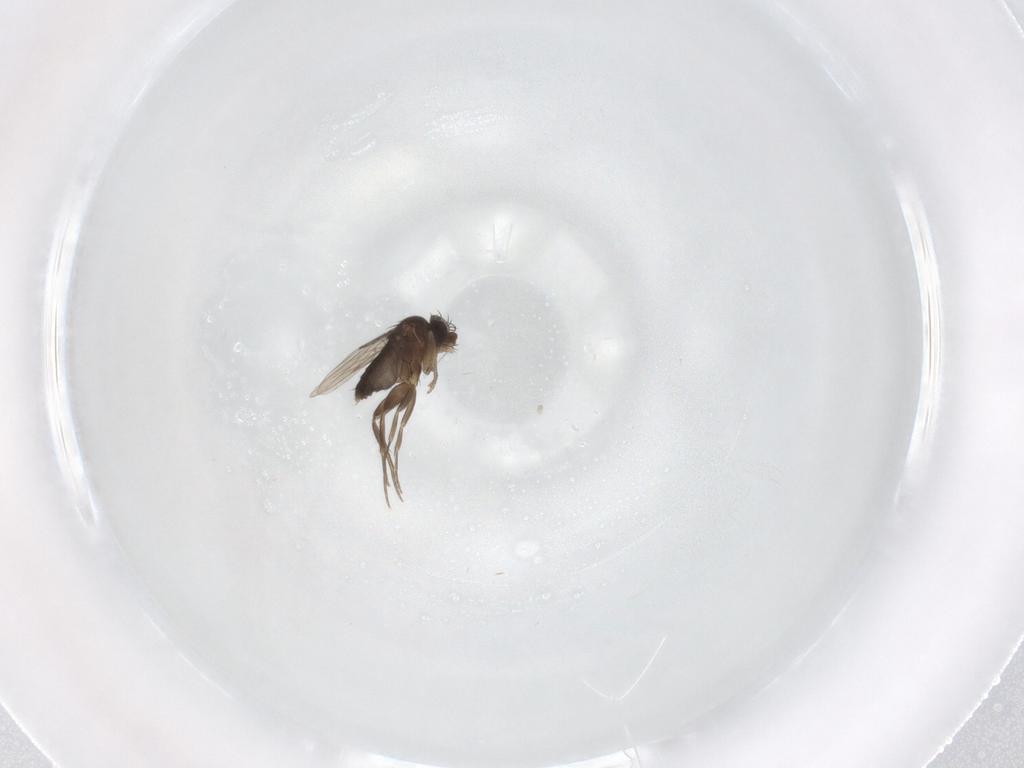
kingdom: Animalia
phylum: Arthropoda
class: Insecta
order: Diptera
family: Phoridae
